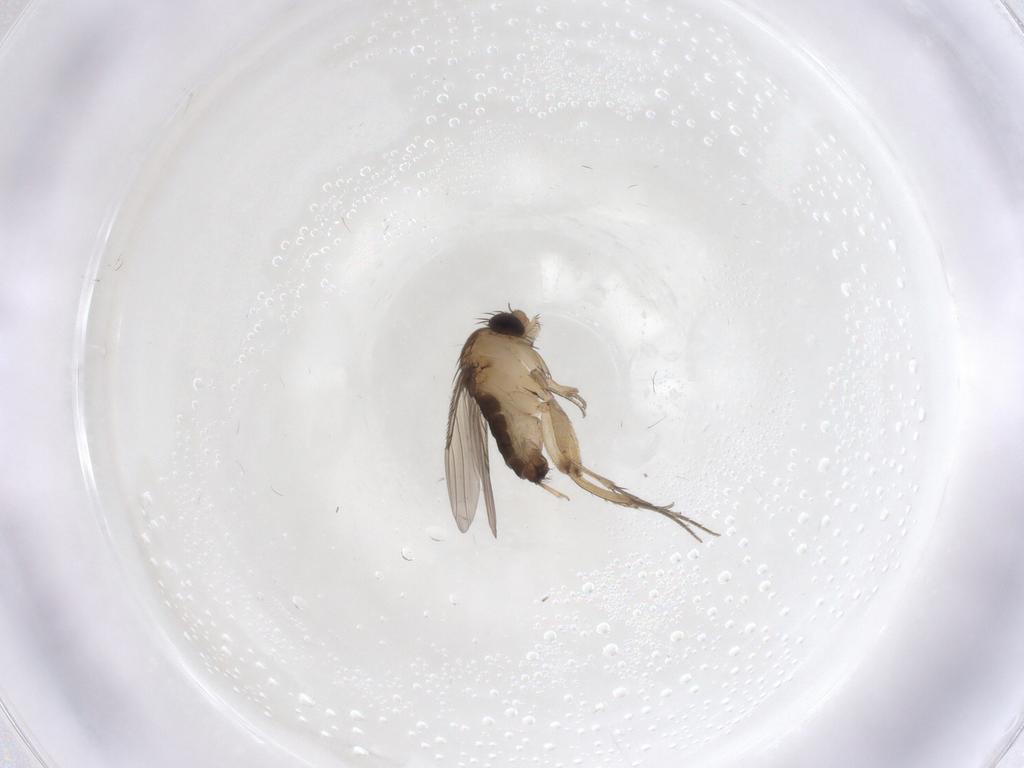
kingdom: Animalia
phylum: Arthropoda
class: Insecta
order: Diptera
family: Phoridae
